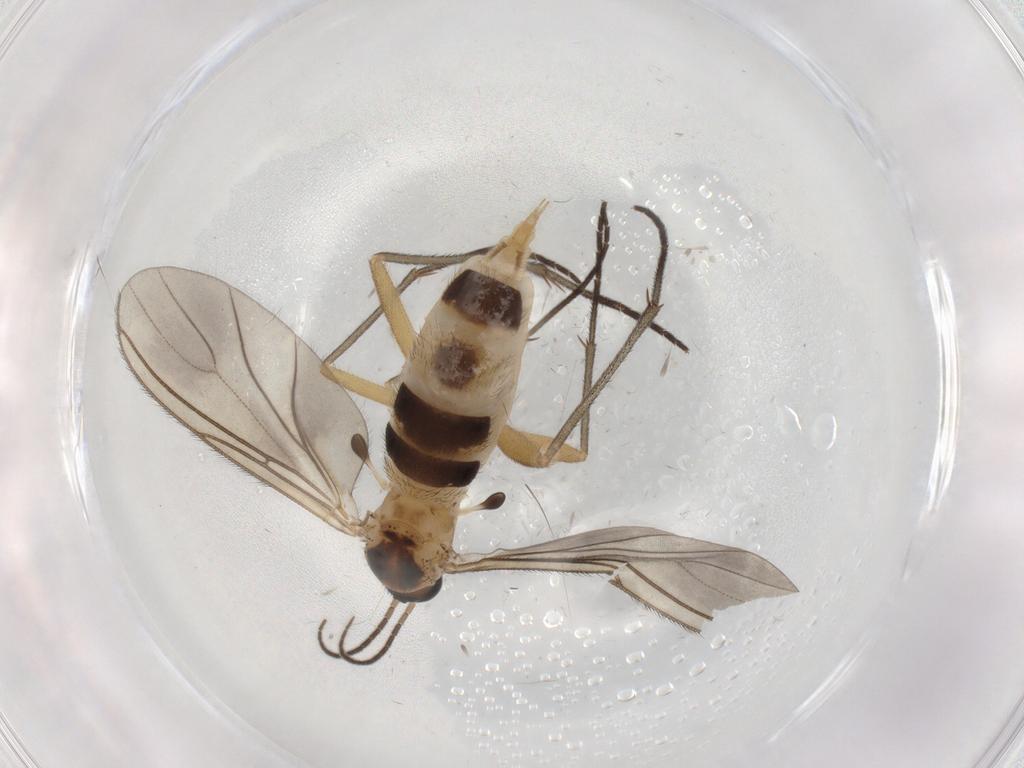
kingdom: Animalia
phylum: Arthropoda
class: Insecta
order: Diptera
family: Sciaridae
